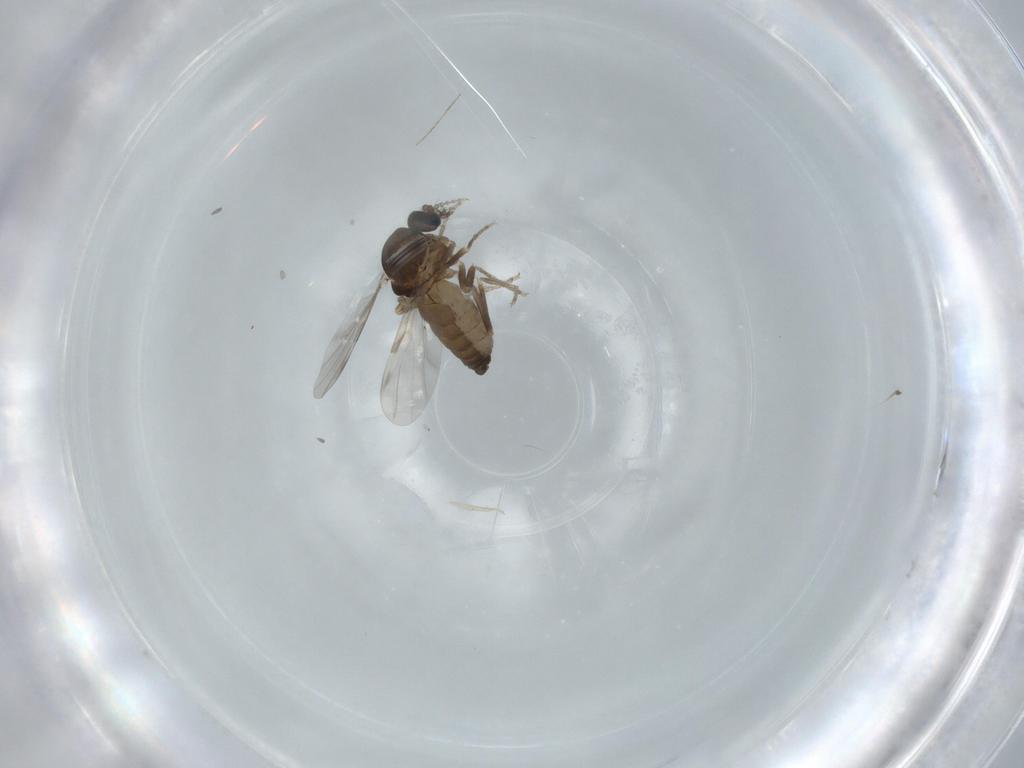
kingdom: Animalia
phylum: Arthropoda
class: Insecta
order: Diptera
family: Ceratopogonidae
